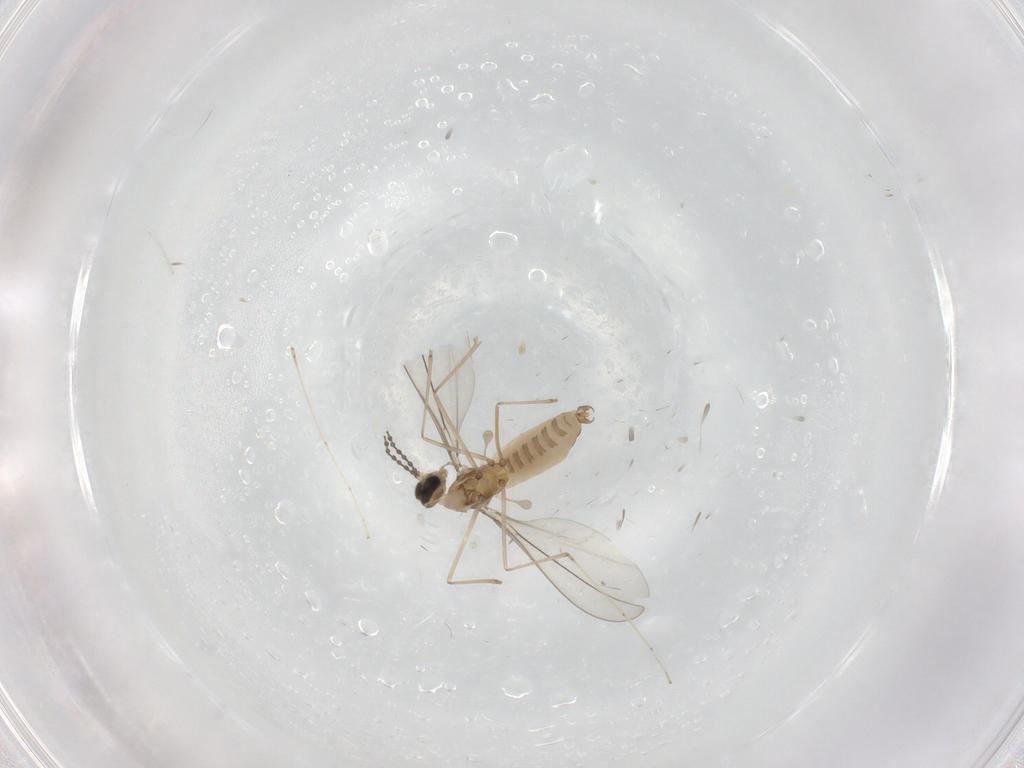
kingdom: Animalia
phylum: Arthropoda
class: Insecta
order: Diptera
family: Cecidomyiidae
